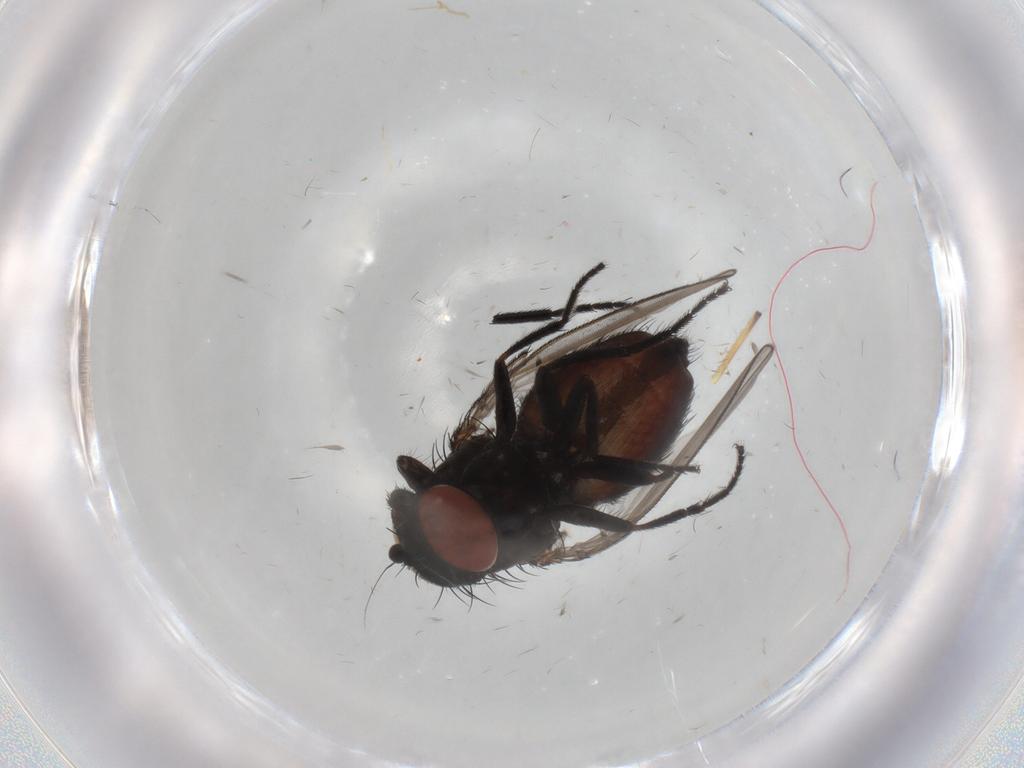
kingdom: Animalia
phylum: Arthropoda
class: Insecta
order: Diptera
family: Milichiidae
